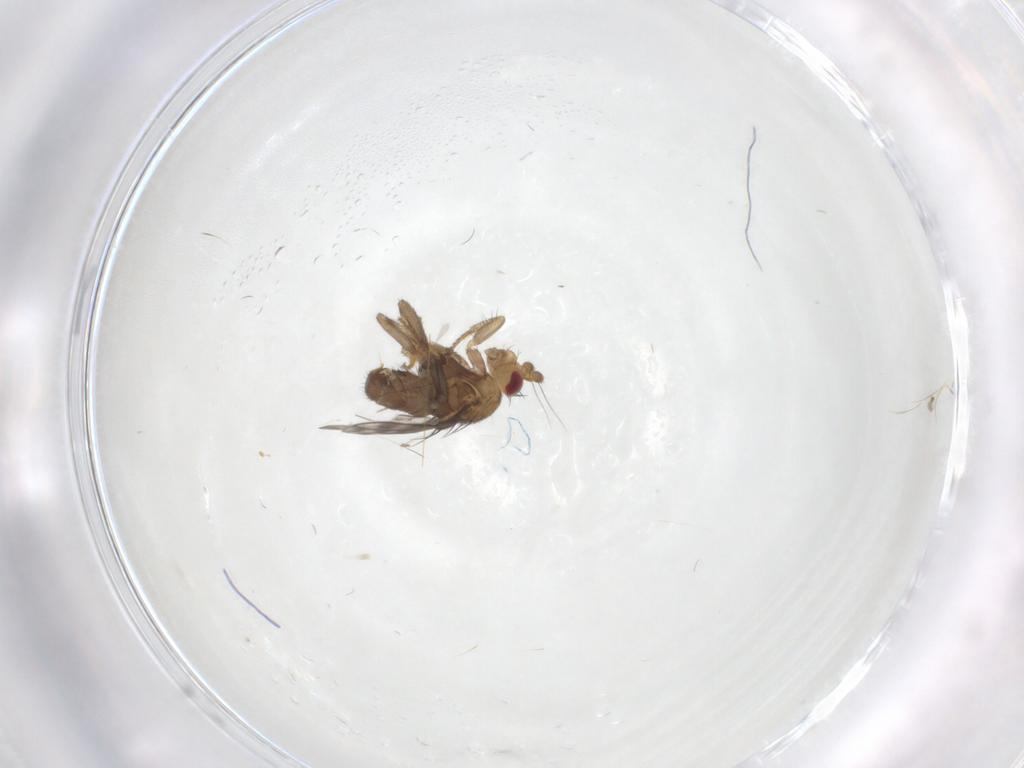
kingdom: Animalia
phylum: Arthropoda
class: Insecta
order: Diptera
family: Sphaeroceridae
